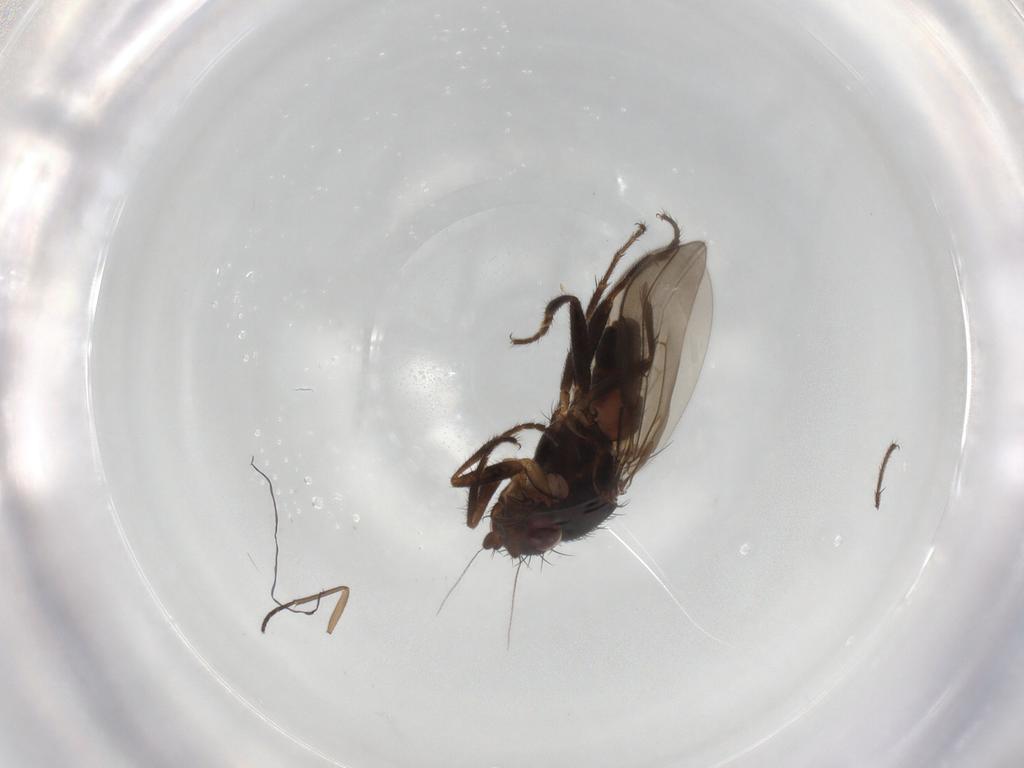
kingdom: Animalia
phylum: Arthropoda
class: Insecta
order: Diptera
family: Sphaeroceridae
